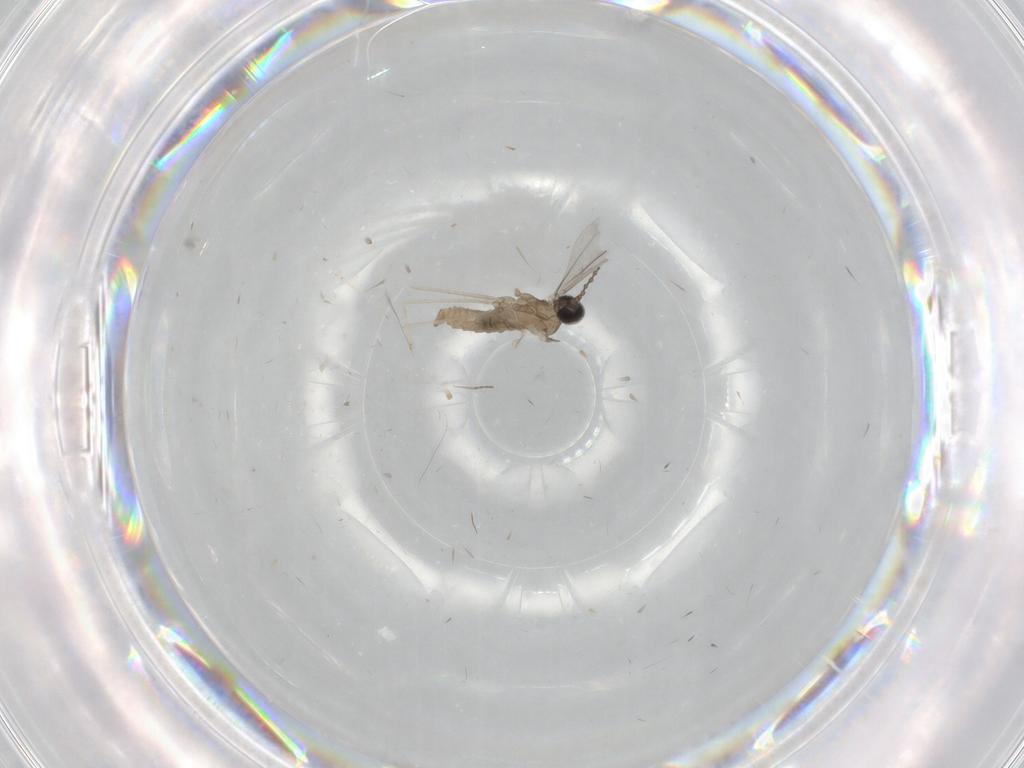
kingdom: Animalia
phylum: Arthropoda
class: Insecta
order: Diptera
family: Cecidomyiidae
